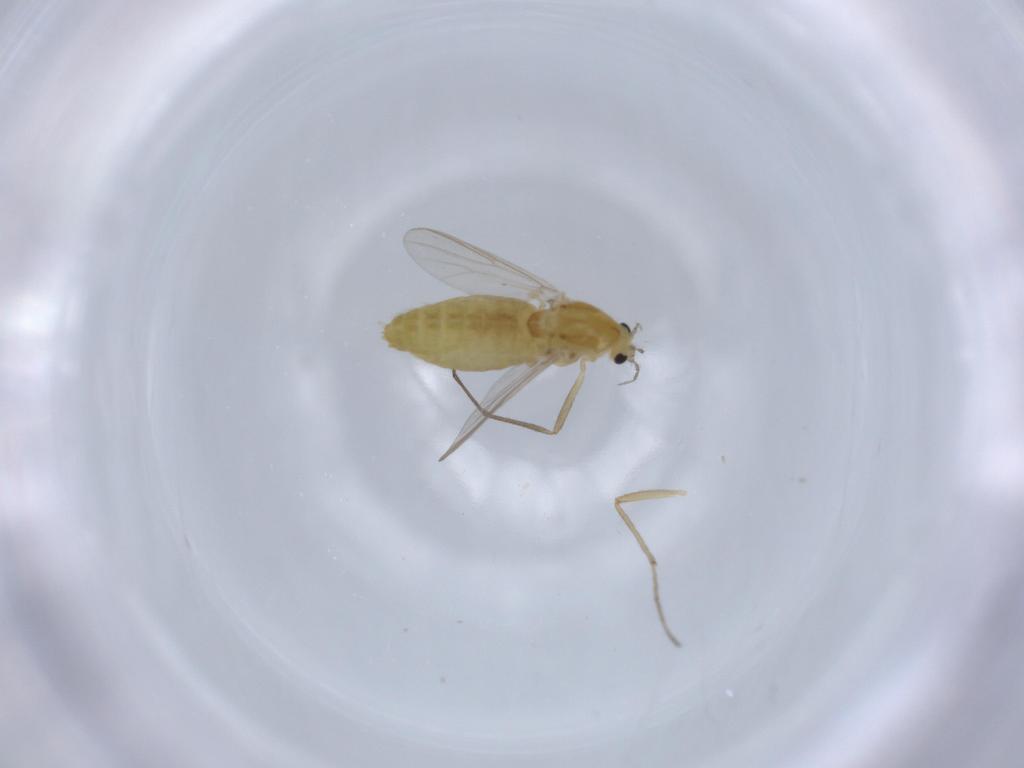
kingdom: Animalia
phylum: Arthropoda
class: Insecta
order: Diptera
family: Chironomidae
